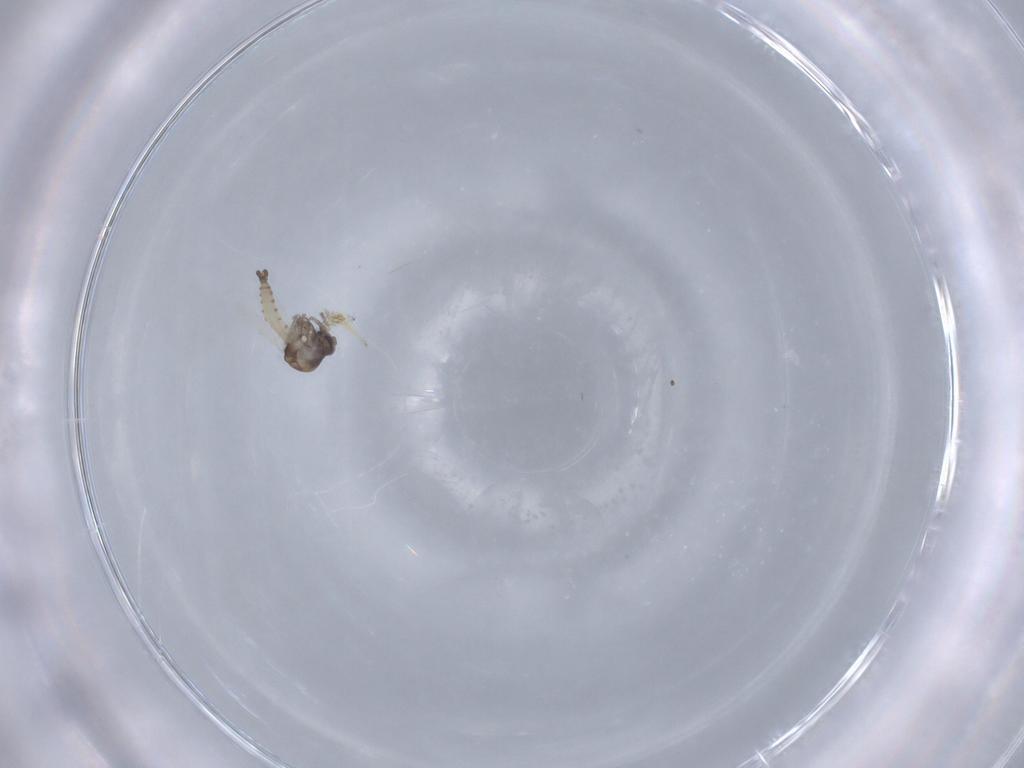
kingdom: Animalia
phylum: Arthropoda
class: Insecta
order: Diptera
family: Ceratopogonidae
